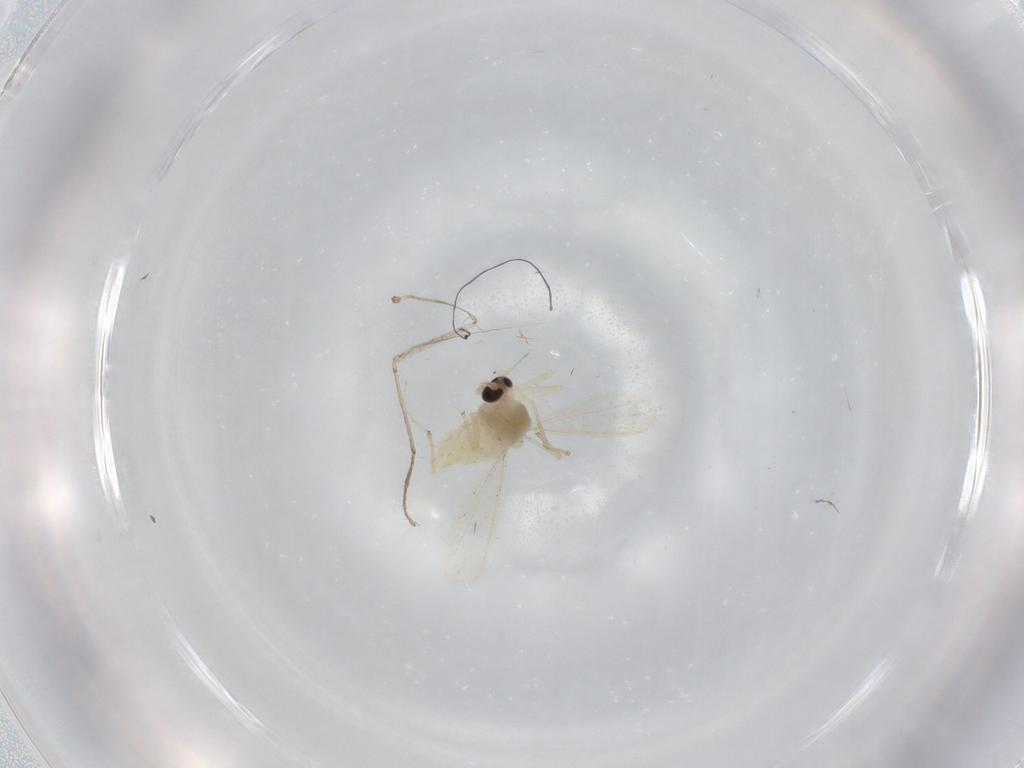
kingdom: Animalia
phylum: Arthropoda
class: Insecta
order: Diptera
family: Chironomidae
